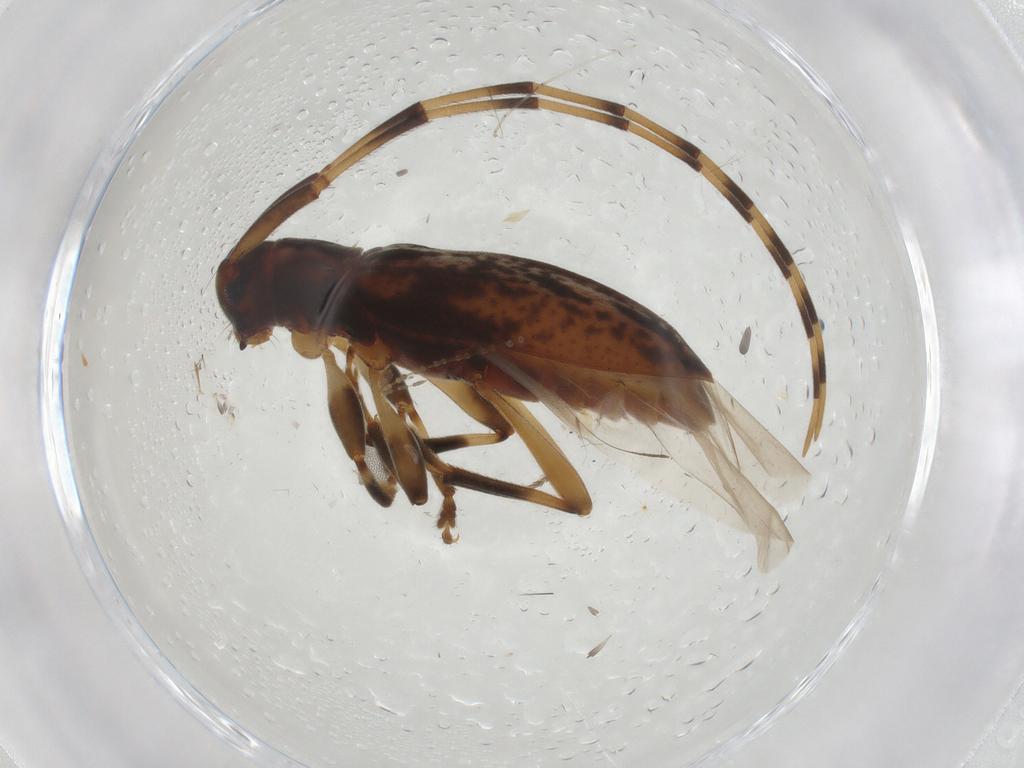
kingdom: Animalia
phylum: Arthropoda
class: Insecta
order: Coleoptera
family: Cerambycidae
